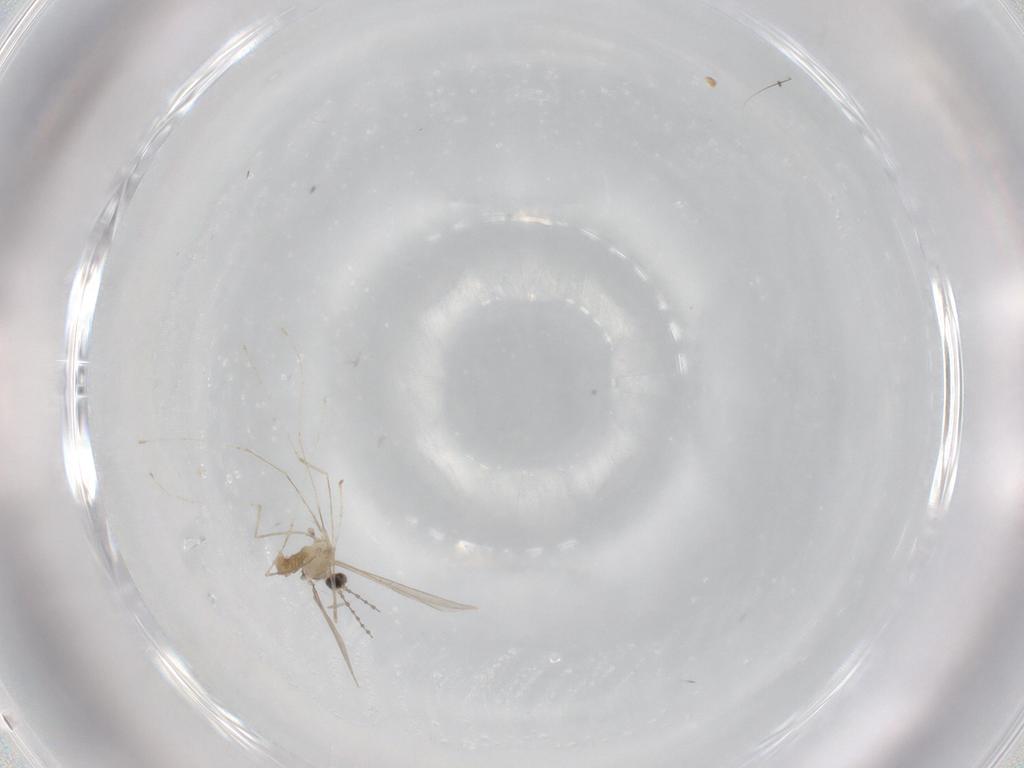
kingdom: Animalia
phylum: Arthropoda
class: Insecta
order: Diptera
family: Cecidomyiidae
